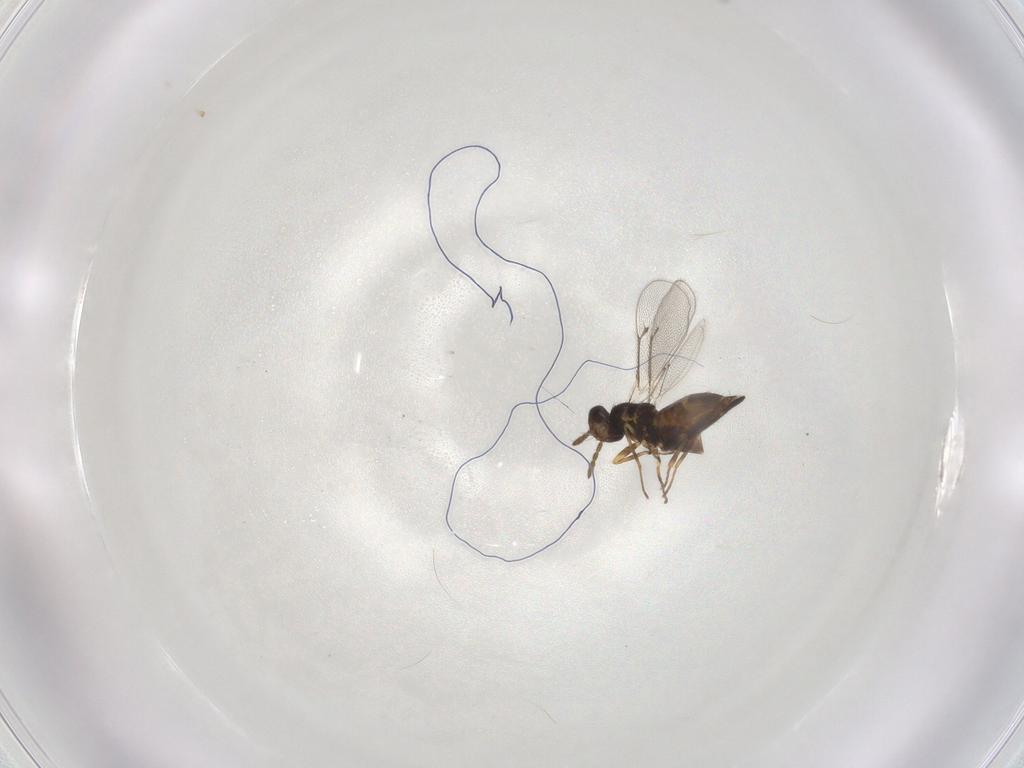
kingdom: Animalia
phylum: Arthropoda
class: Insecta
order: Hymenoptera
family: Eulophidae
